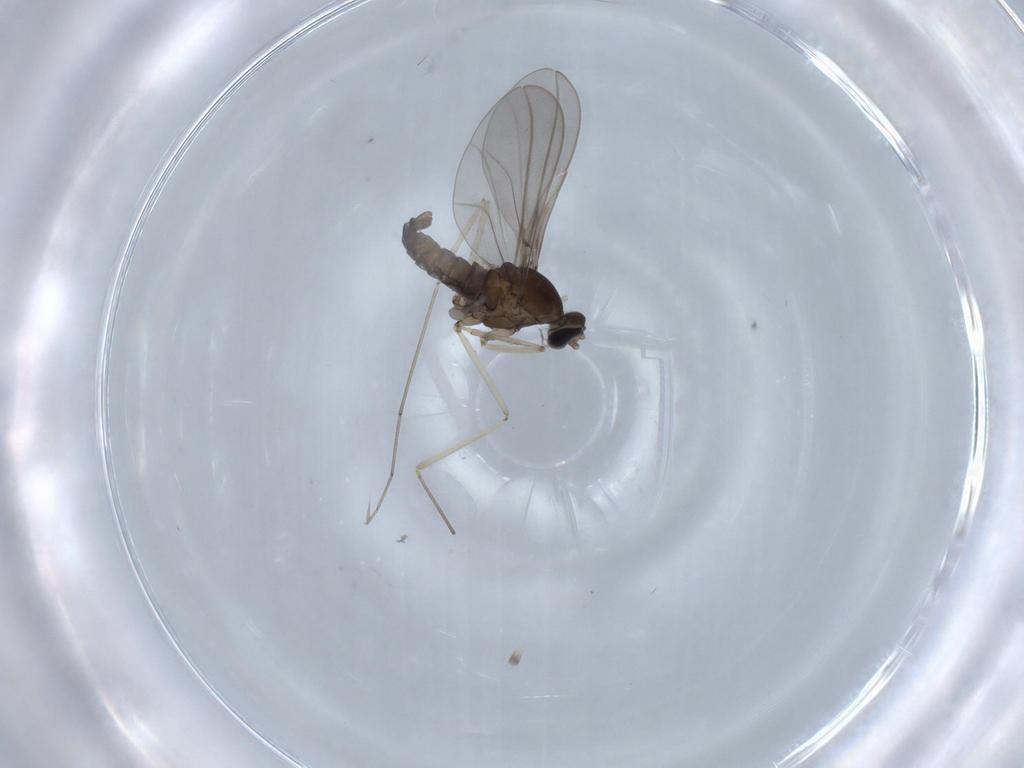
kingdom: Animalia
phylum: Arthropoda
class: Insecta
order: Diptera
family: Cecidomyiidae
